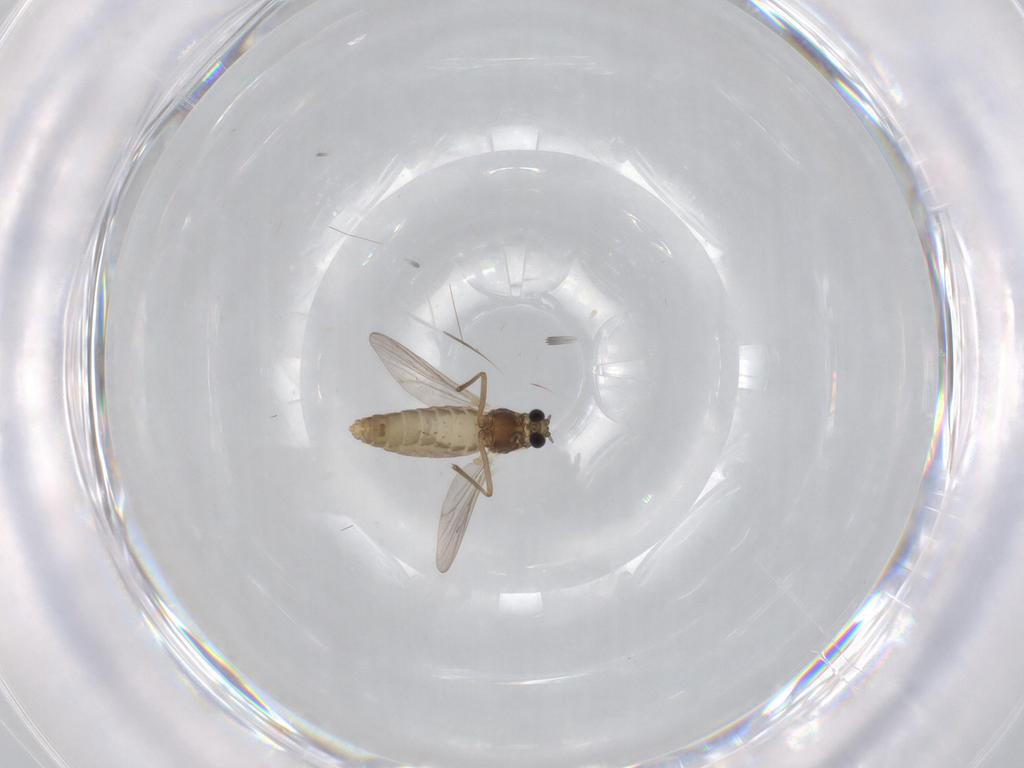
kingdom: Animalia
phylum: Arthropoda
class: Insecta
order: Diptera
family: Chironomidae
